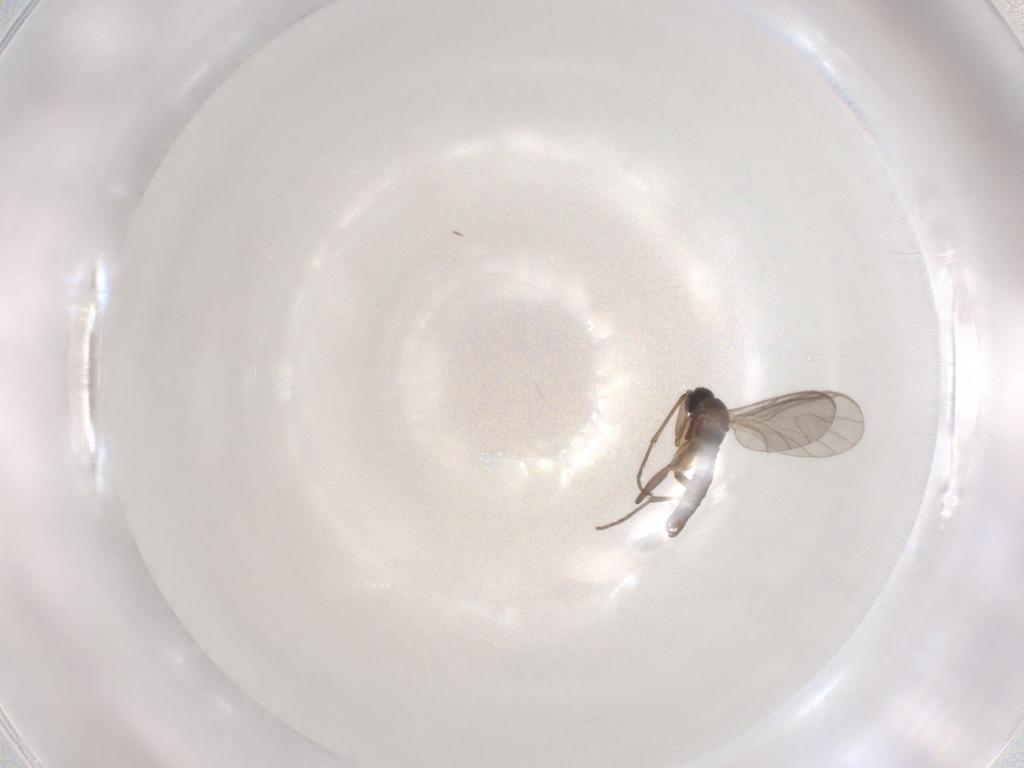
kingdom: Animalia
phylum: Arthropoda
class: Insecta
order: Diptera
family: Sciaridae
